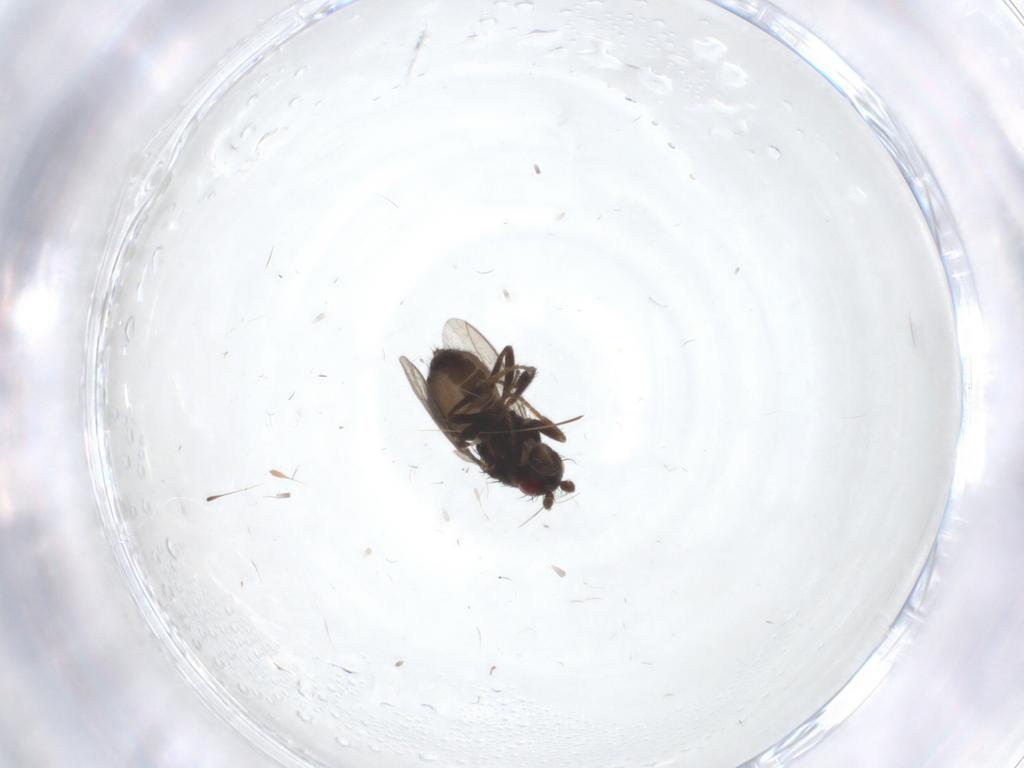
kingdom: Animalia
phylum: Arthropoda
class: Insecta
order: Diptera
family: Sphaeroceridae
